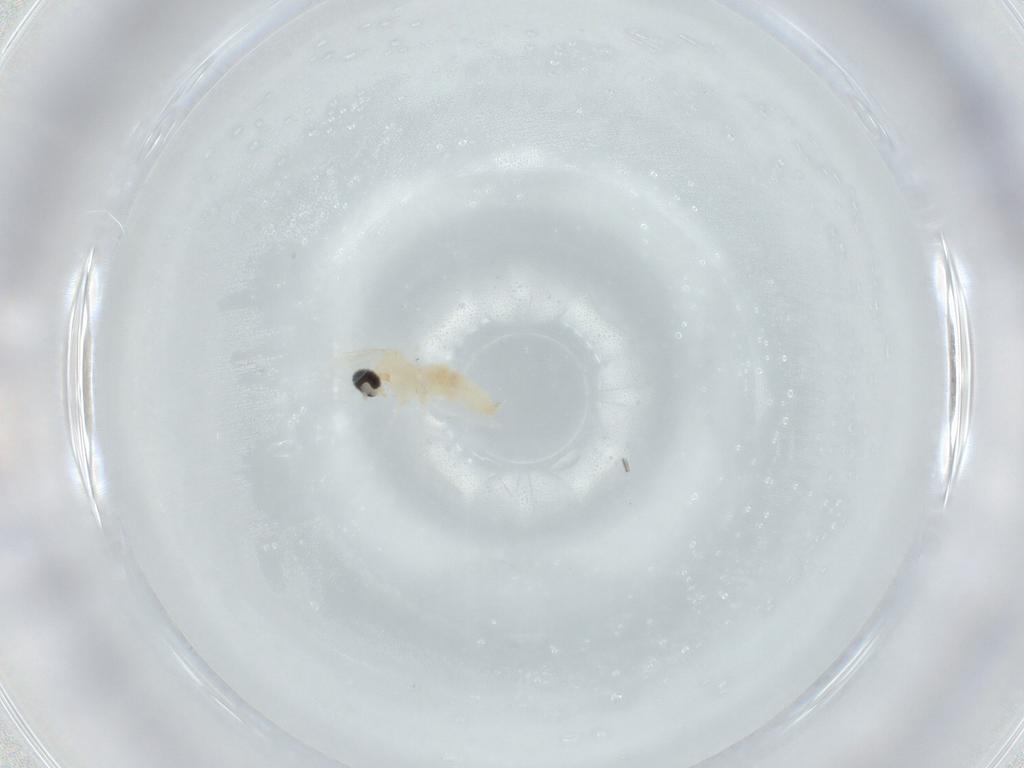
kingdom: Animalia
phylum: Arthropoda
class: Insecta
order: Diptera
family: Cecidomyiidae
